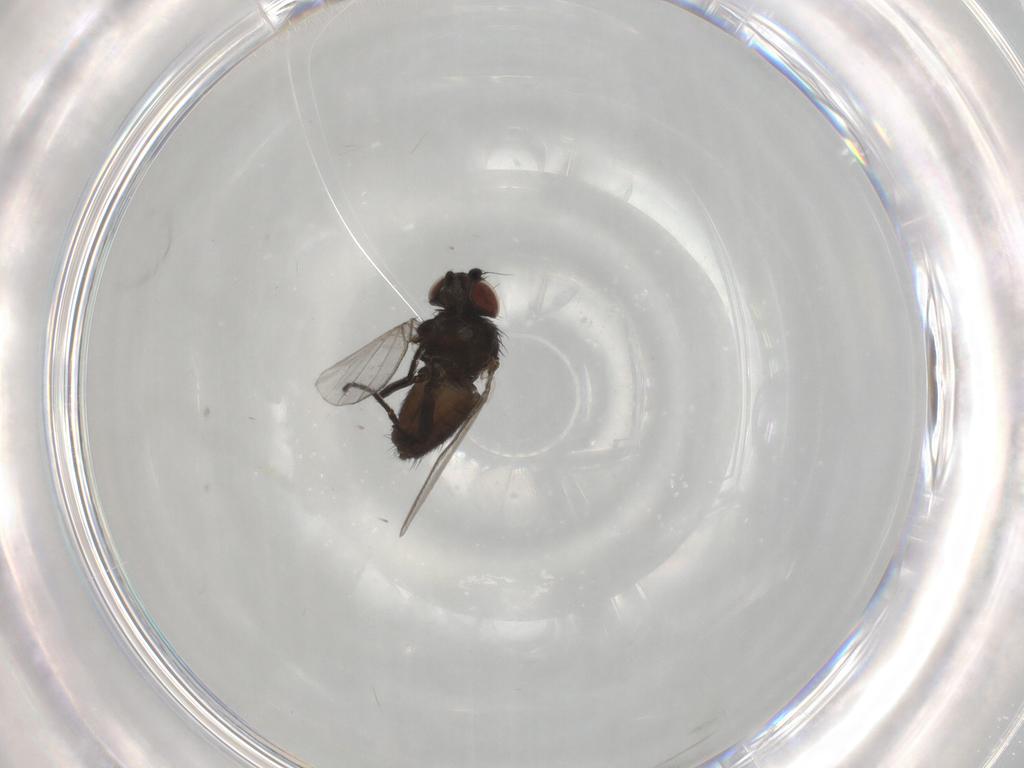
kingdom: Animalia
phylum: Arthropoda
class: Insecta
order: Diptera
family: Milichiidae
